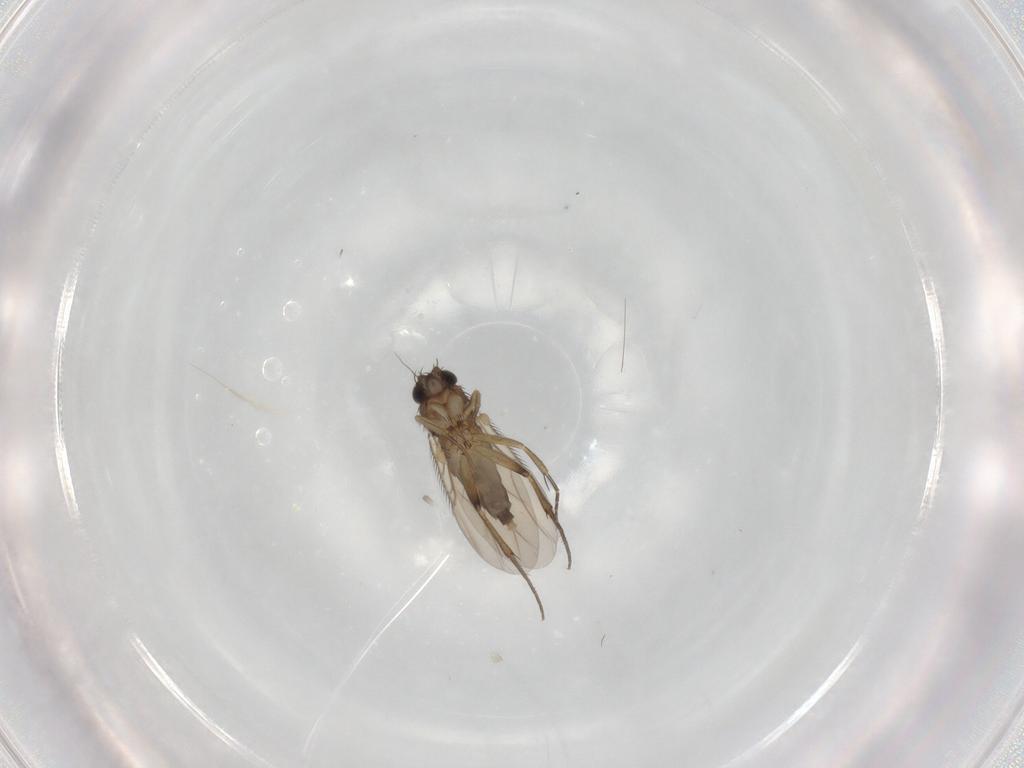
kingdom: Animalia
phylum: Arthropoda
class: Insecta
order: Diptera
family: Phoridae
